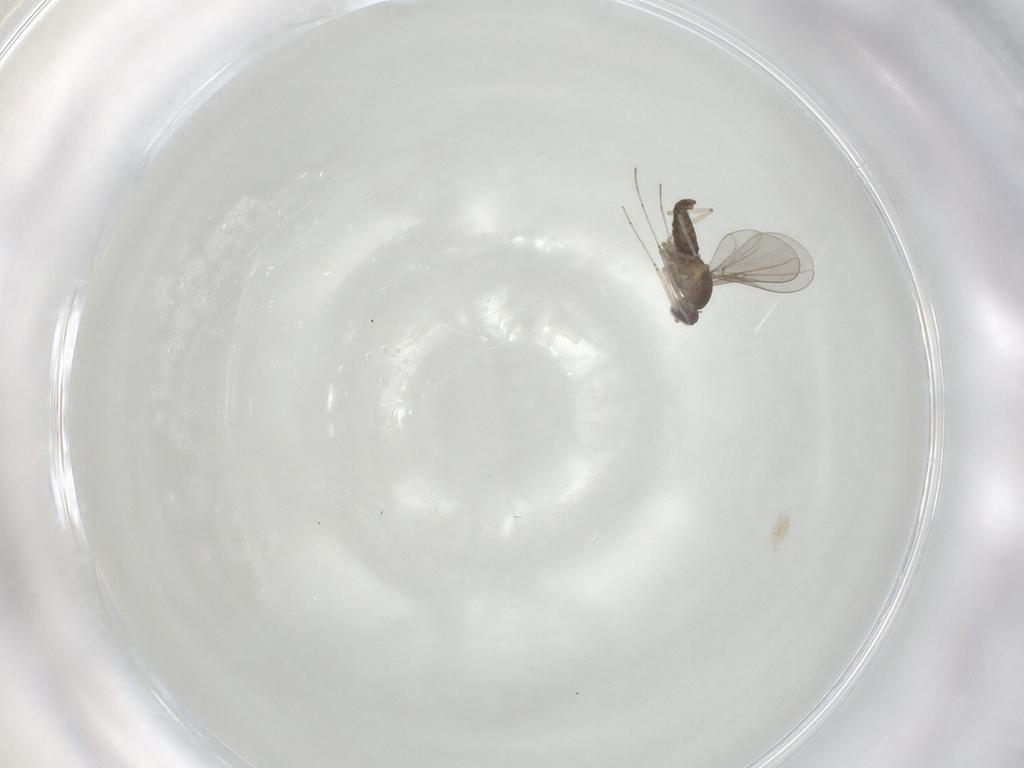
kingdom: Animalia
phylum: Arthropoda
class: Insecta
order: Diptera
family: Cecidomyiidae
